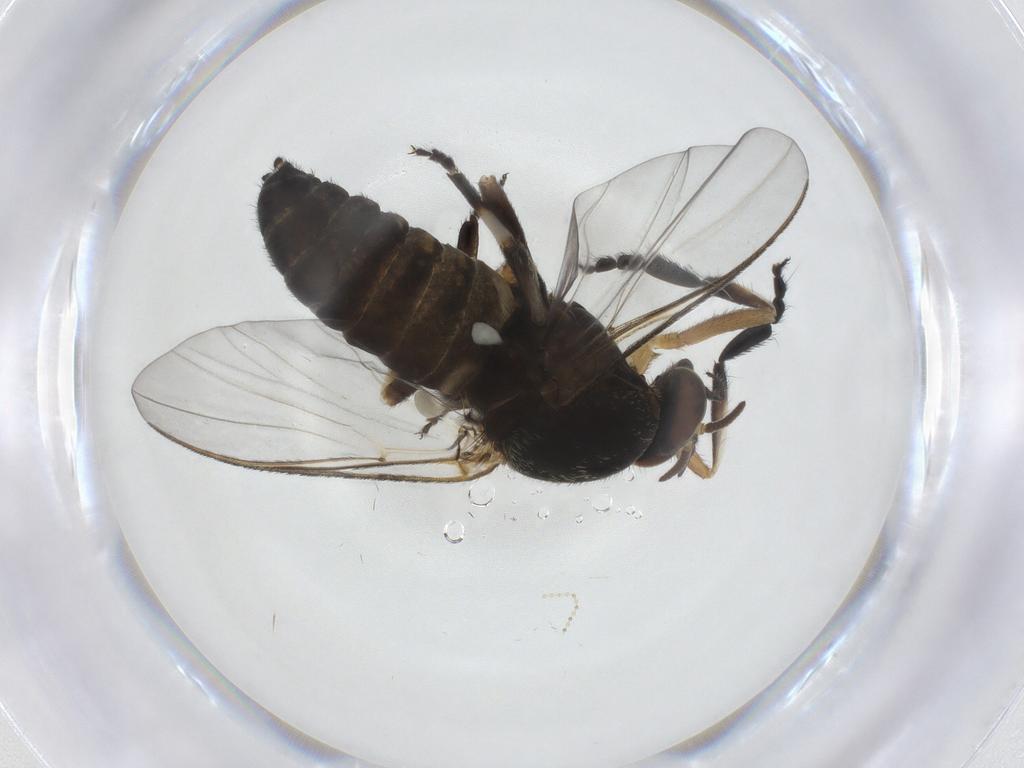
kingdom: Animalia
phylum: Arthropoda
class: Insecta
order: Diptera
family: Chironomidae
